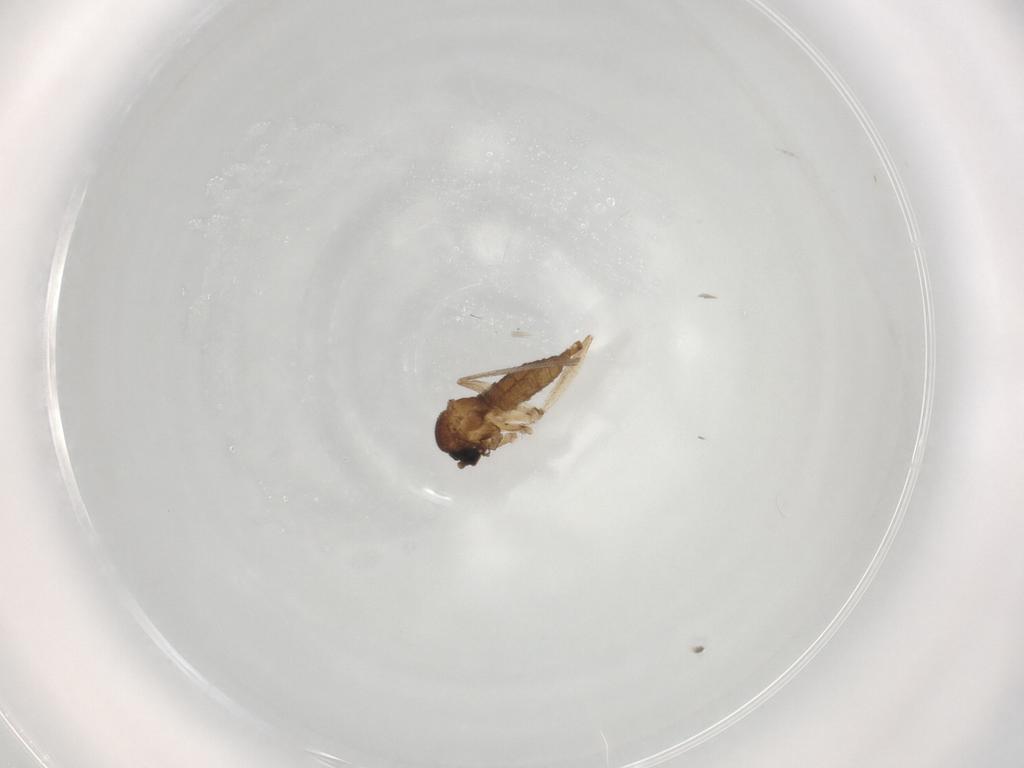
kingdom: Animalia
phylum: Arthropoda
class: Insecta
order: Diptera
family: Sciaridae
